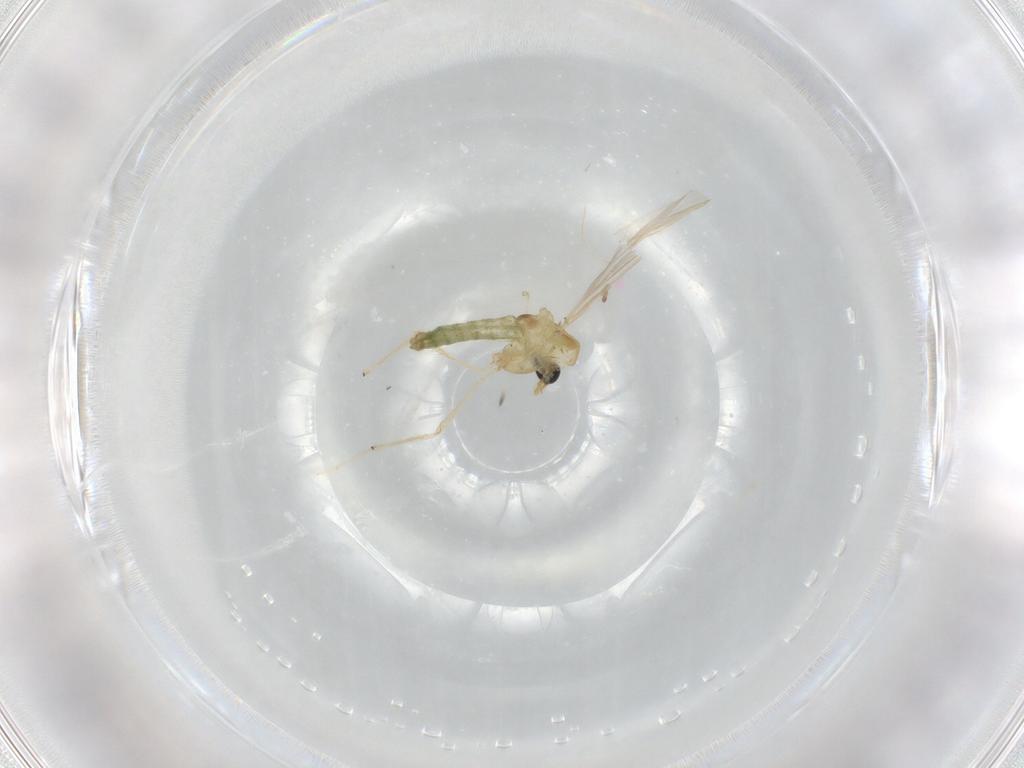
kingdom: Animalia
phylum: Arthropoda
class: Insecta
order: Diptera
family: Chironomidae
